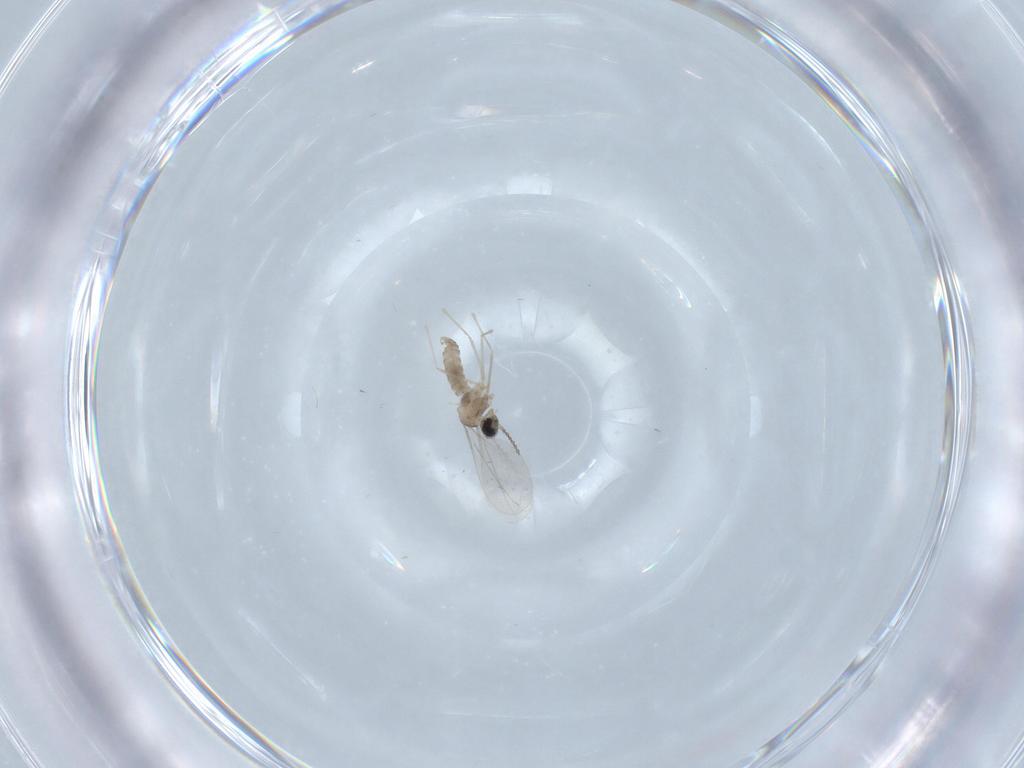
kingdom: Animalia
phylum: Arthropoda
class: Insecta
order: Diptera
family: Cecidomyiidae
